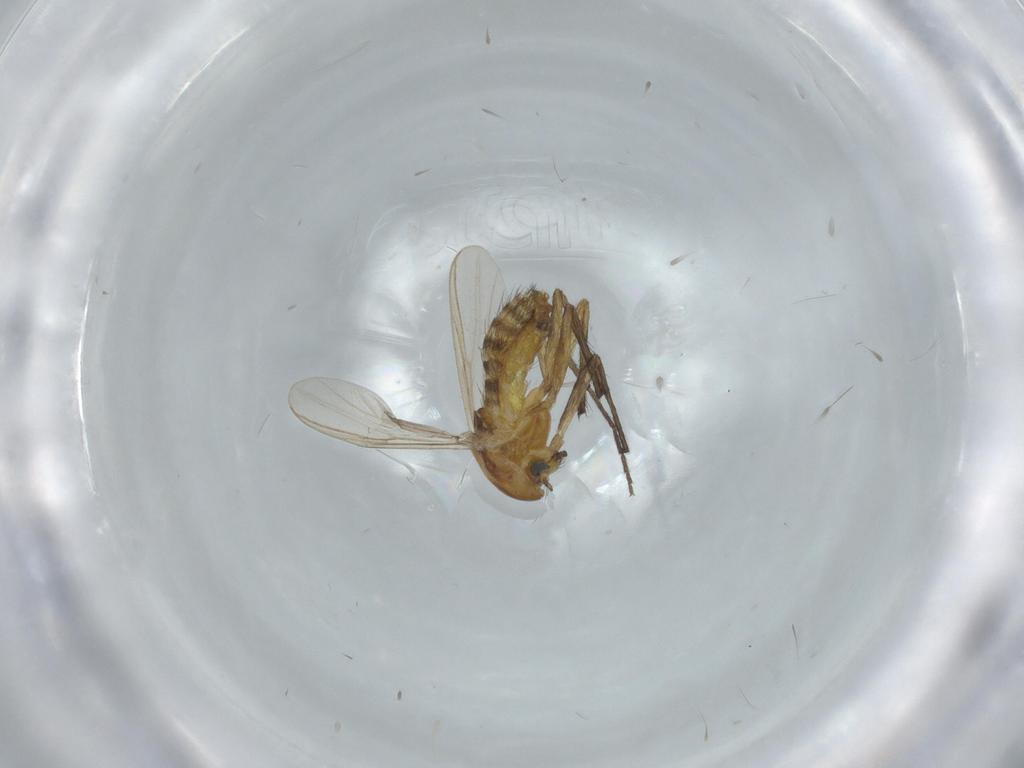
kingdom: Animalia
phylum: Arthropoda
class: Insecta
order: Diptera
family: Chironomidae
